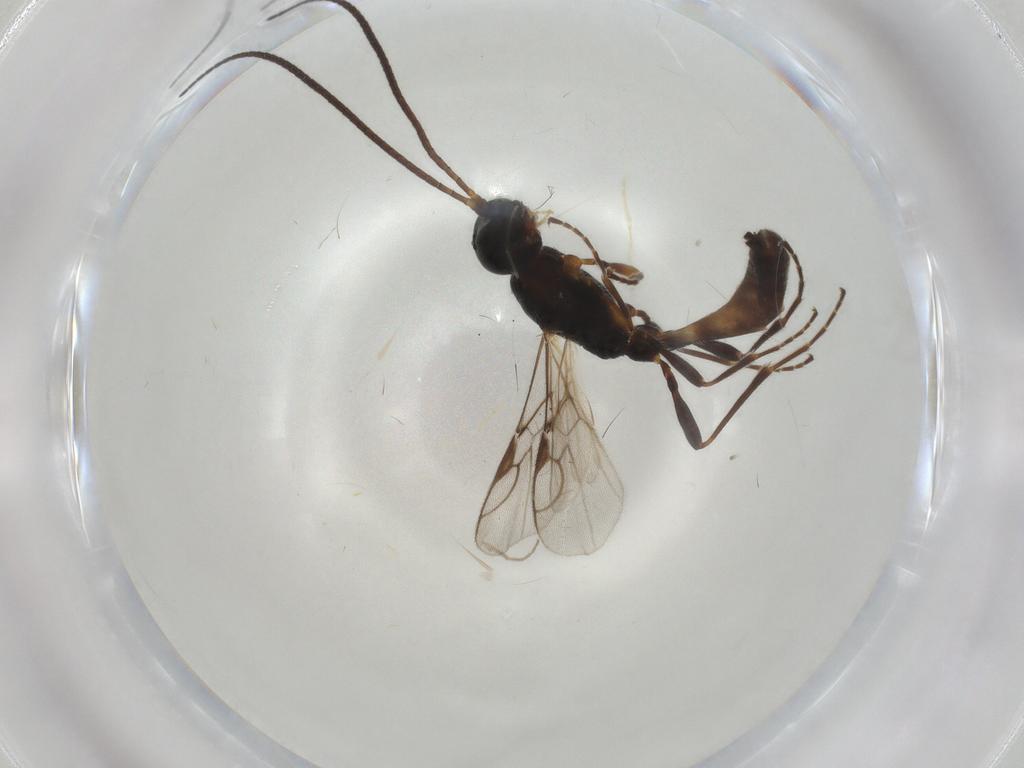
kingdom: Animalia
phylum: Arthropoda
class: Insecta
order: Hymenoptera
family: Braconidae
